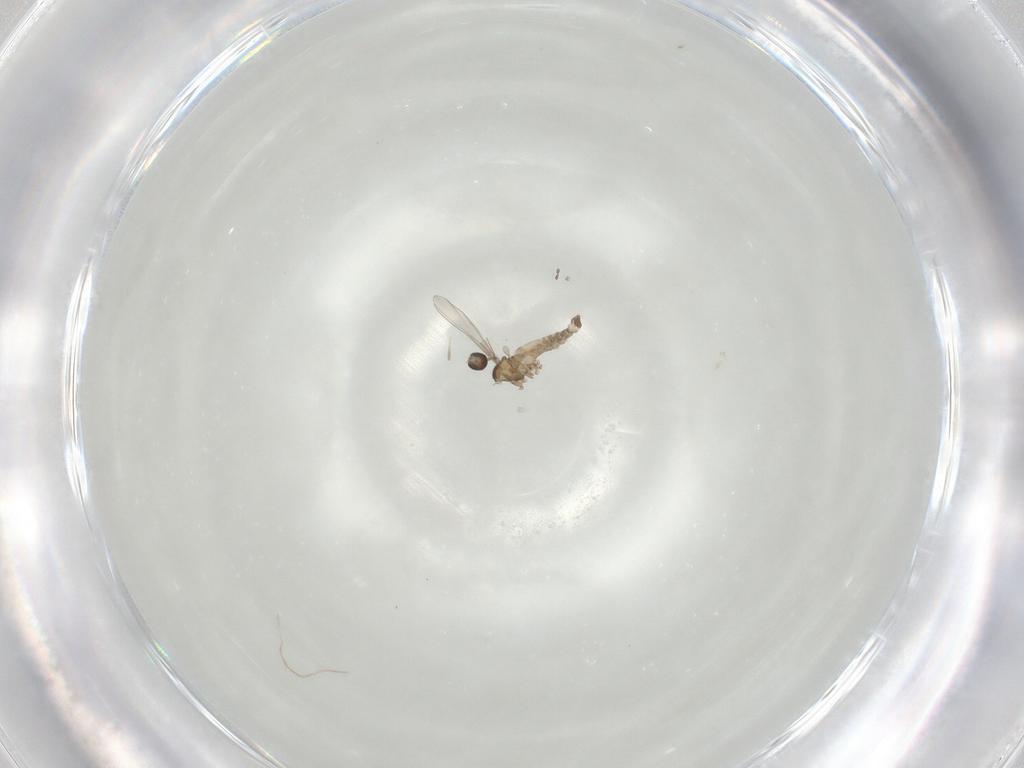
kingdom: Animalia
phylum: Arthropoda
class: Insecta
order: Diptera
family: Cecidomyiidae
